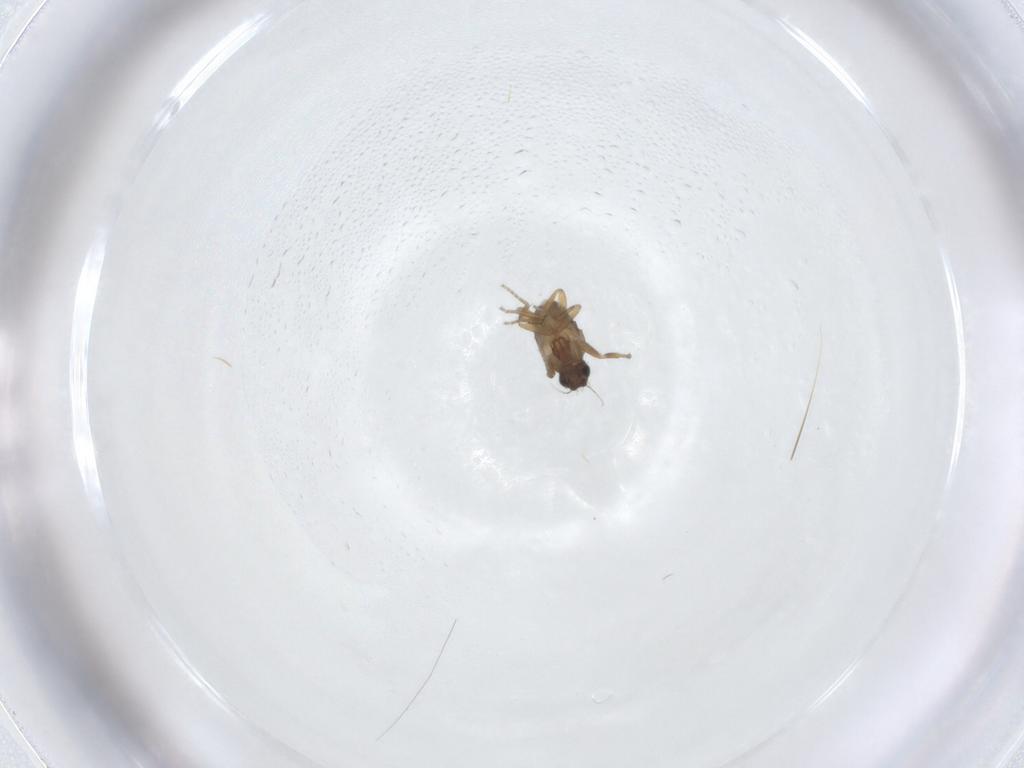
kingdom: Animalia
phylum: Arthropoda
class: Insecta
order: Diptera
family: Phoridae
